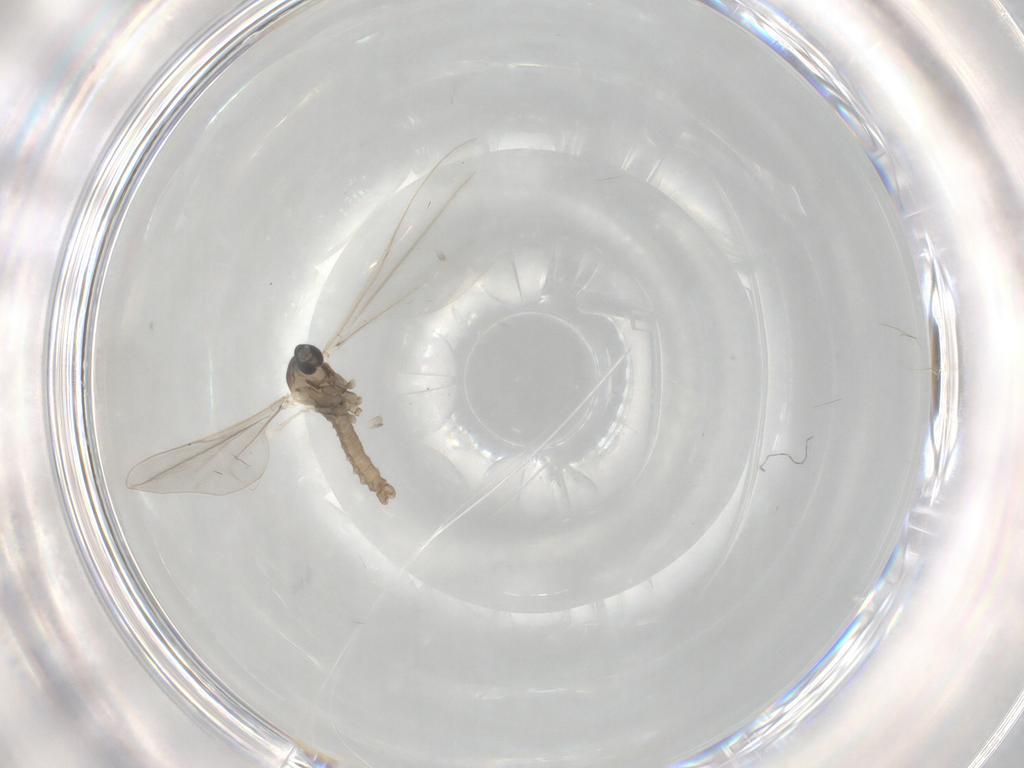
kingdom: Animalia
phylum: Arthropoda
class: Insecta
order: Diptera
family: Cecidomyiidae
